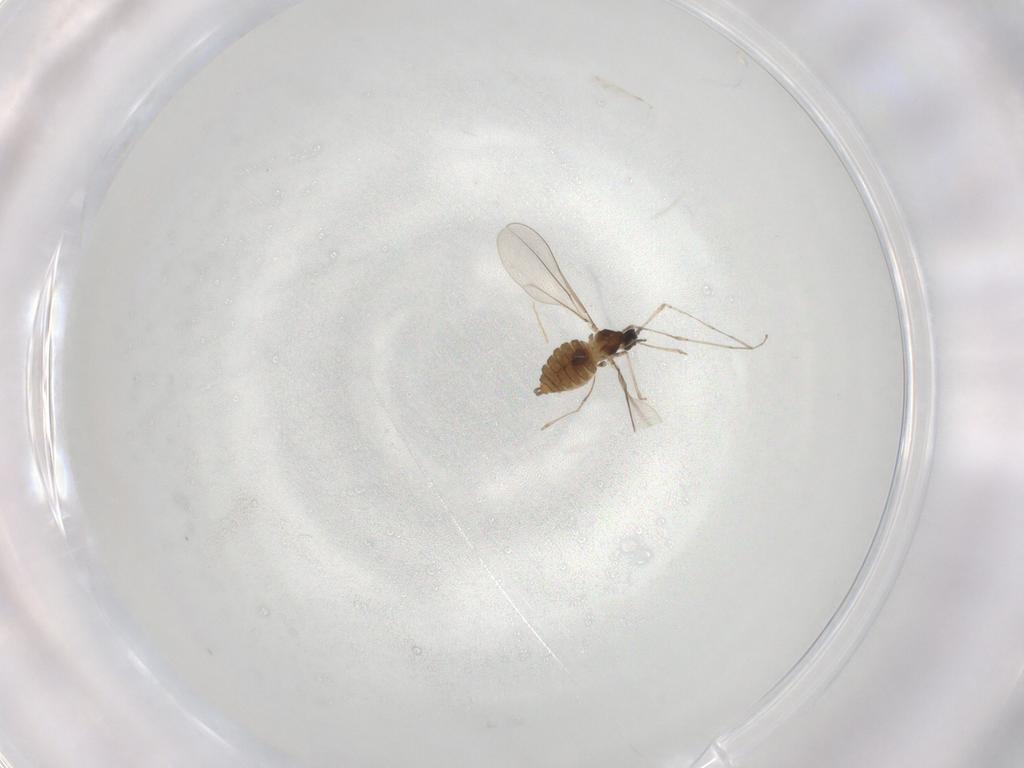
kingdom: Animalia
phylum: Arthropoda
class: Insecta
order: Diptera
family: Cecidomyiidae
